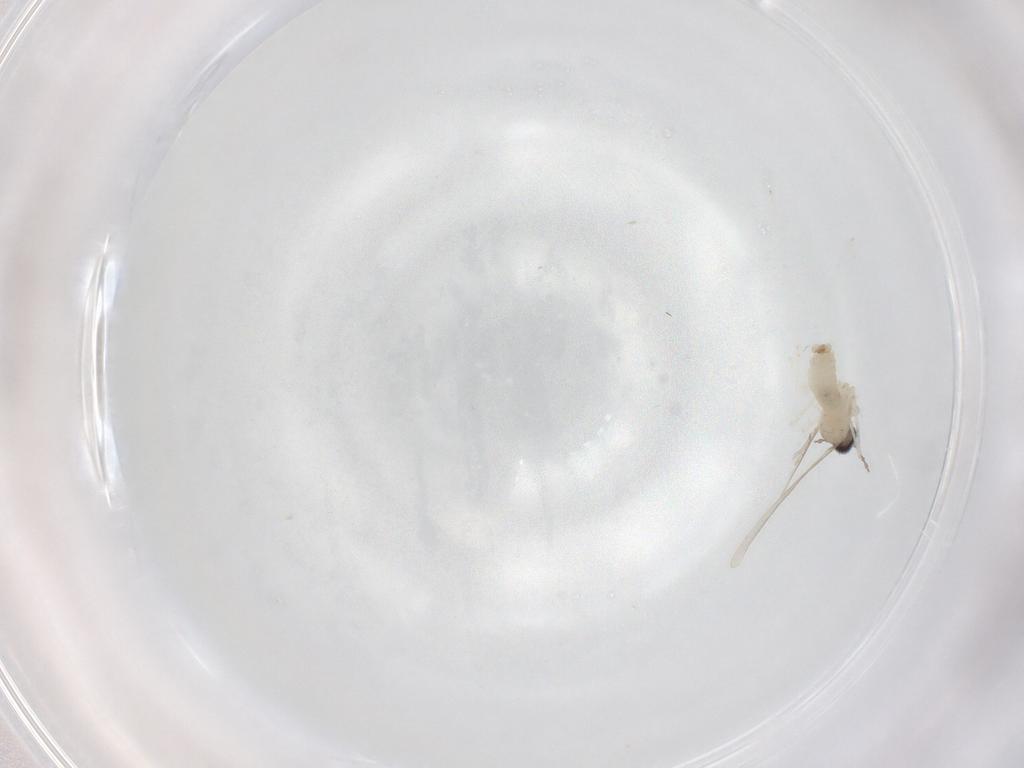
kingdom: Animalia
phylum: Arthropoda
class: Insecta
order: Diptera
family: Cecidomyiidae
